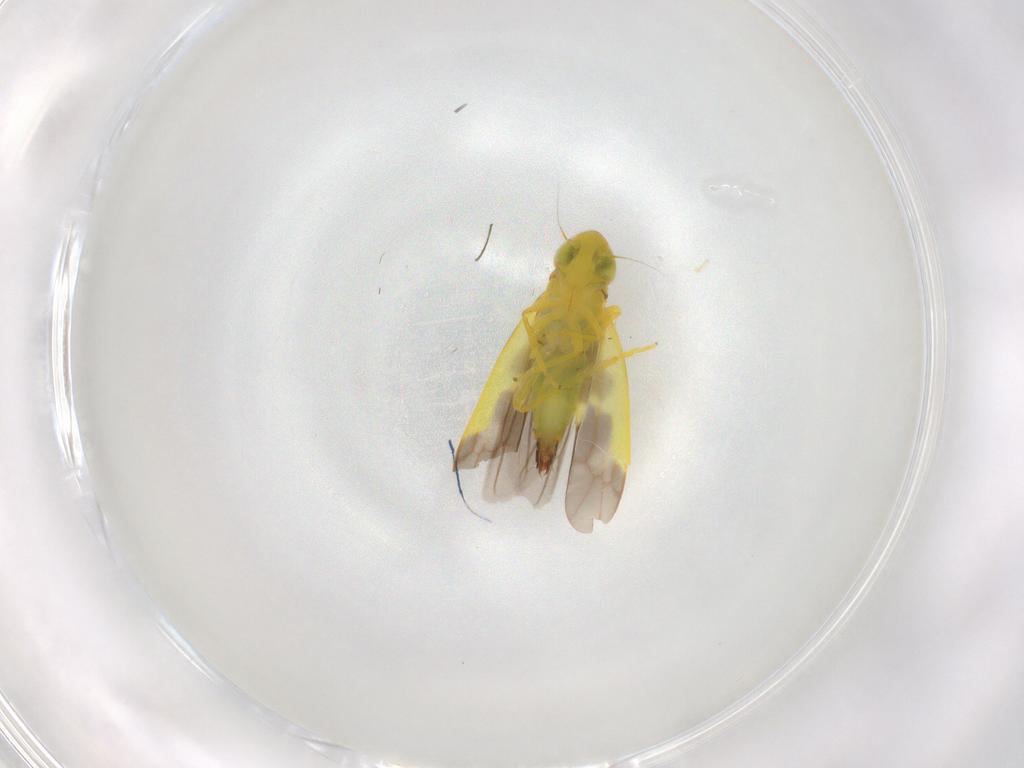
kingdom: Animalia
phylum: Arthropoda
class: Insecta
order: Hemiptera
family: Cicadellidae
